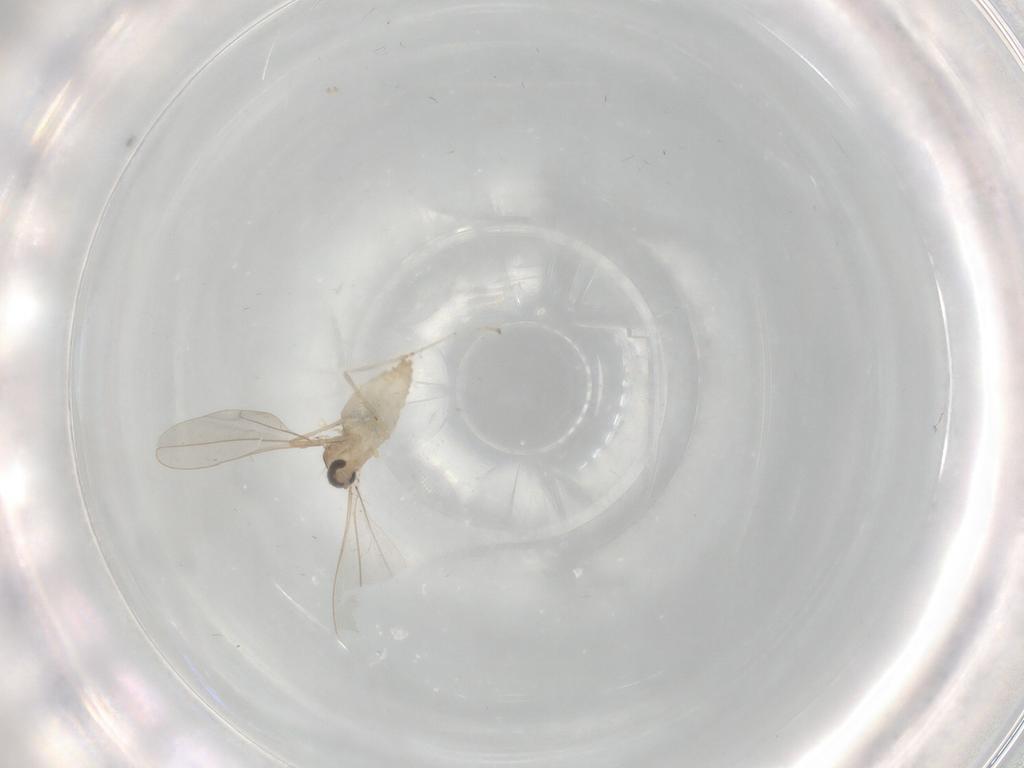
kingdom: Animalia
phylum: Arthropoda
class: Insecta
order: Diptera
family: Cecidomyiidae
